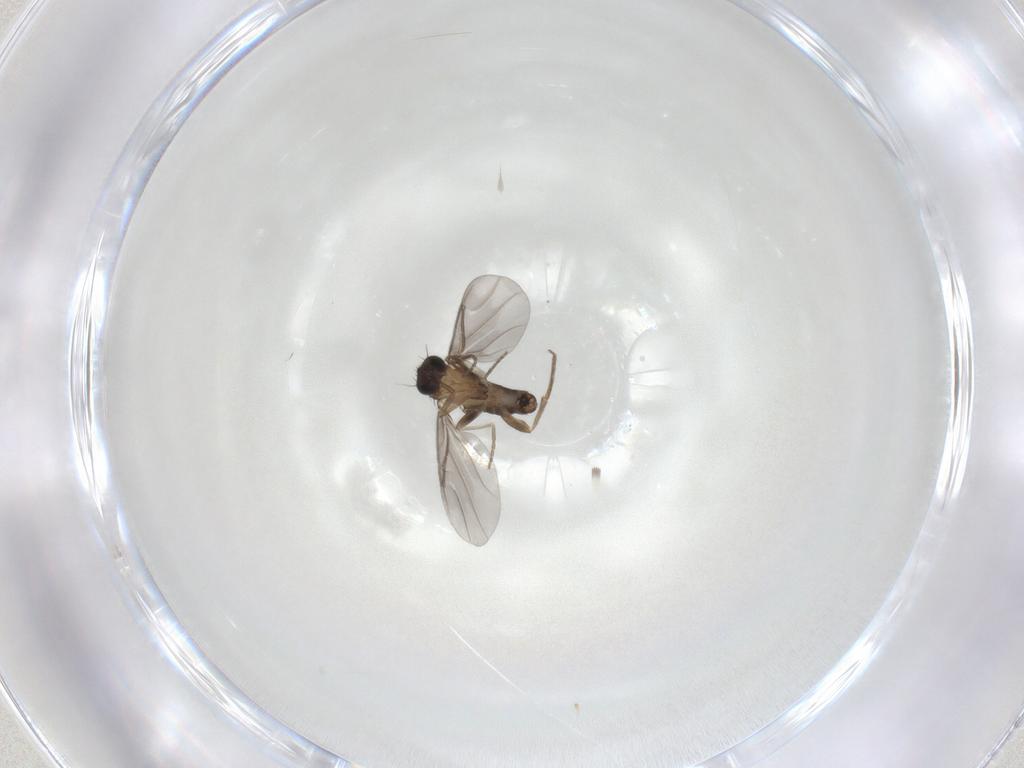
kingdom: Animalia
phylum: Arthropoda
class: Insecta
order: Diptera
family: Phoridae
